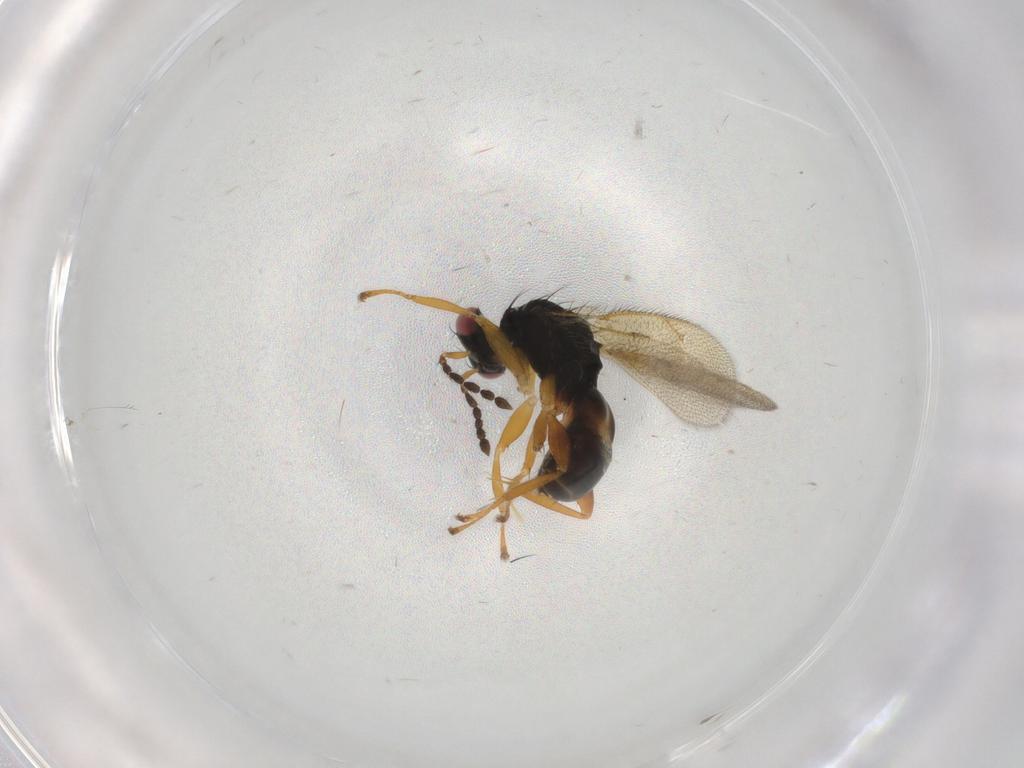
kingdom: Animalia
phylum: Arthropoda
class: Insecta
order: Hymenoptera
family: Eulophidae
